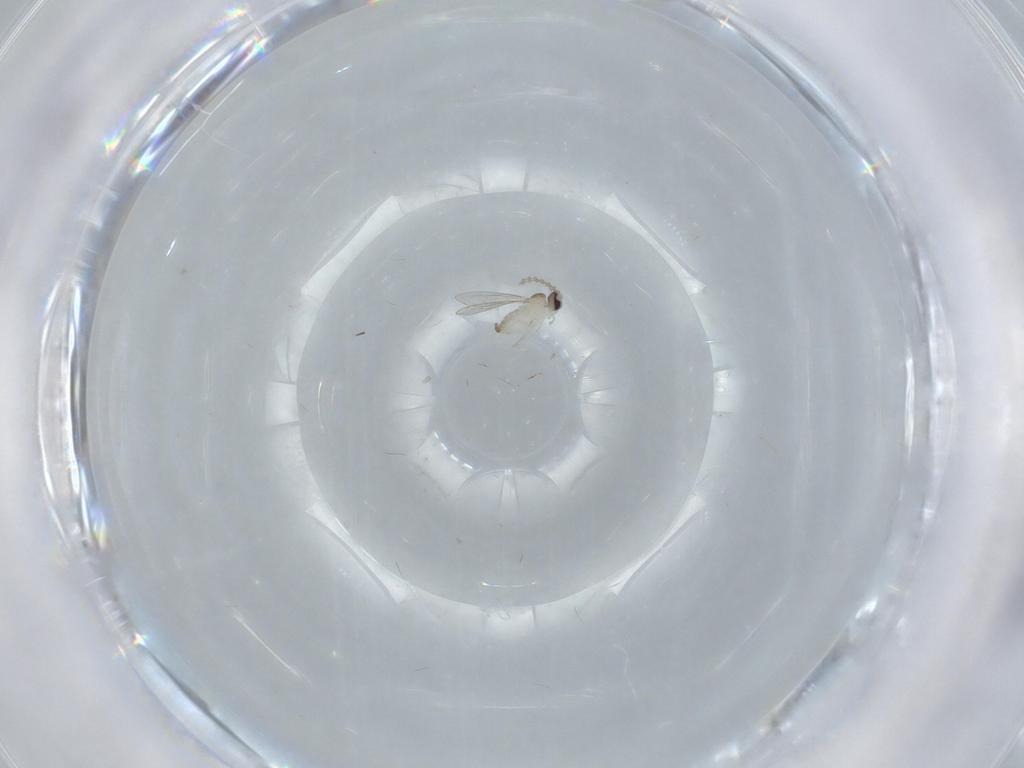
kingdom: Animalia
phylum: Arthropoda
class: Insecta
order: Diptera
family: Cecidomyiidae
